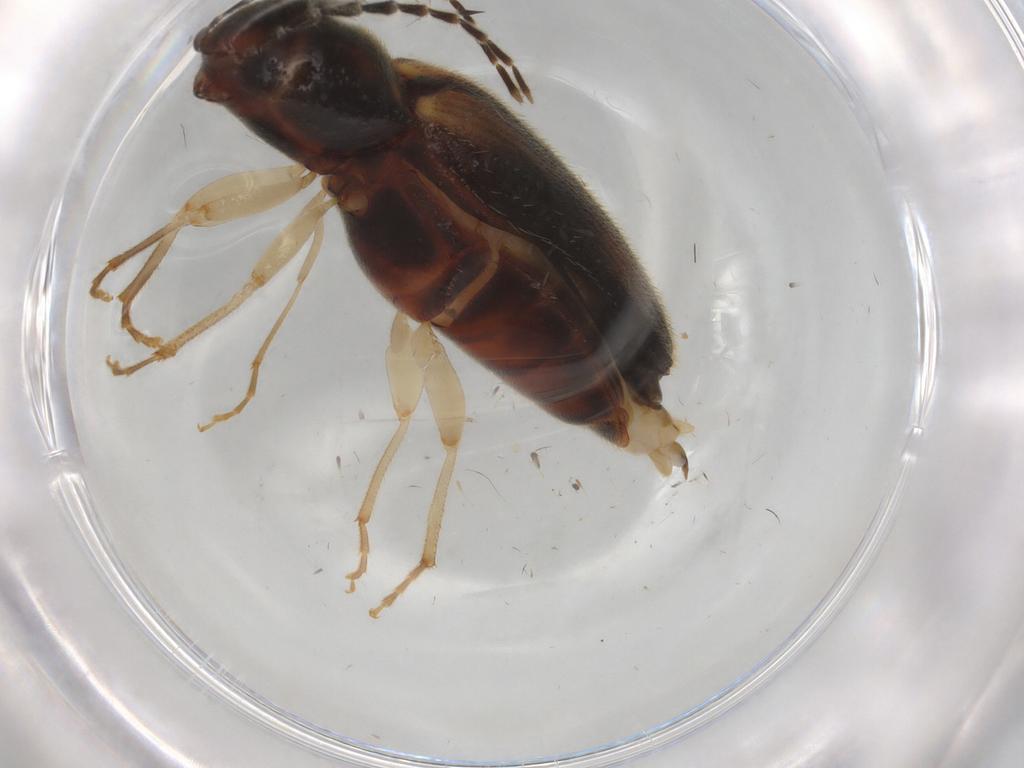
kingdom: Animalia
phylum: Arthropoda
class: Insecta
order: Coleoptera
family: Elateridae
